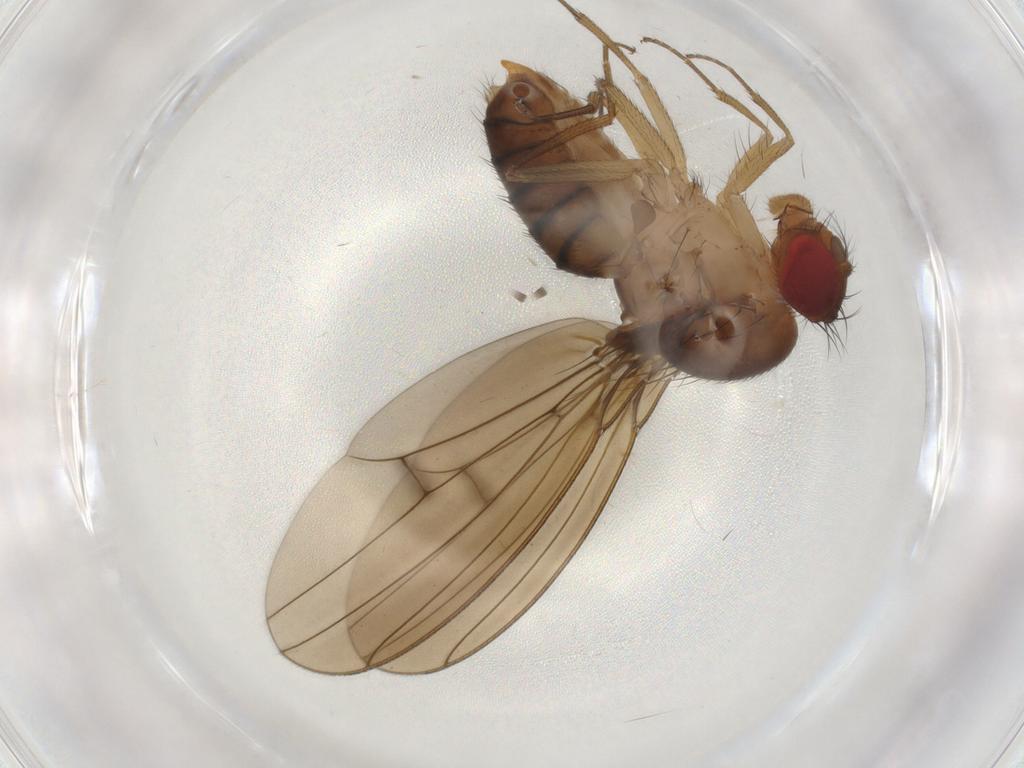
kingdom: Animalia
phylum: Arthropoda
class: Insecta
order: Diptera
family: Drosophilidae
